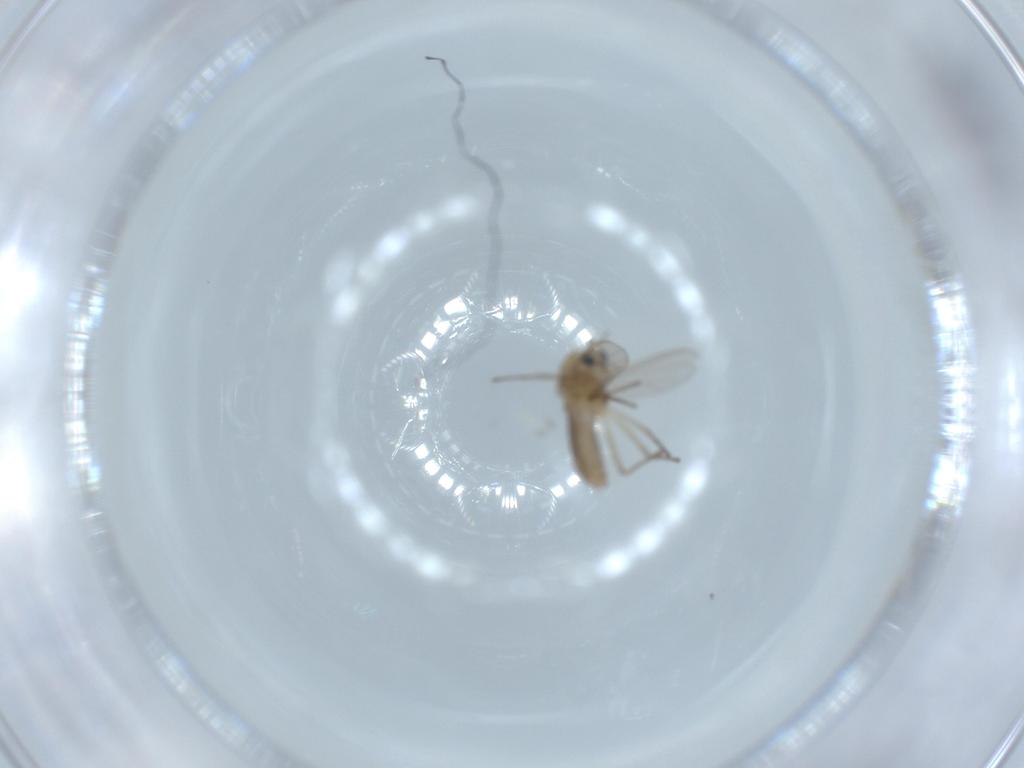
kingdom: Animalia
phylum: Arthropoda
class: Insecta
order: Diptera
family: Chironomidae
